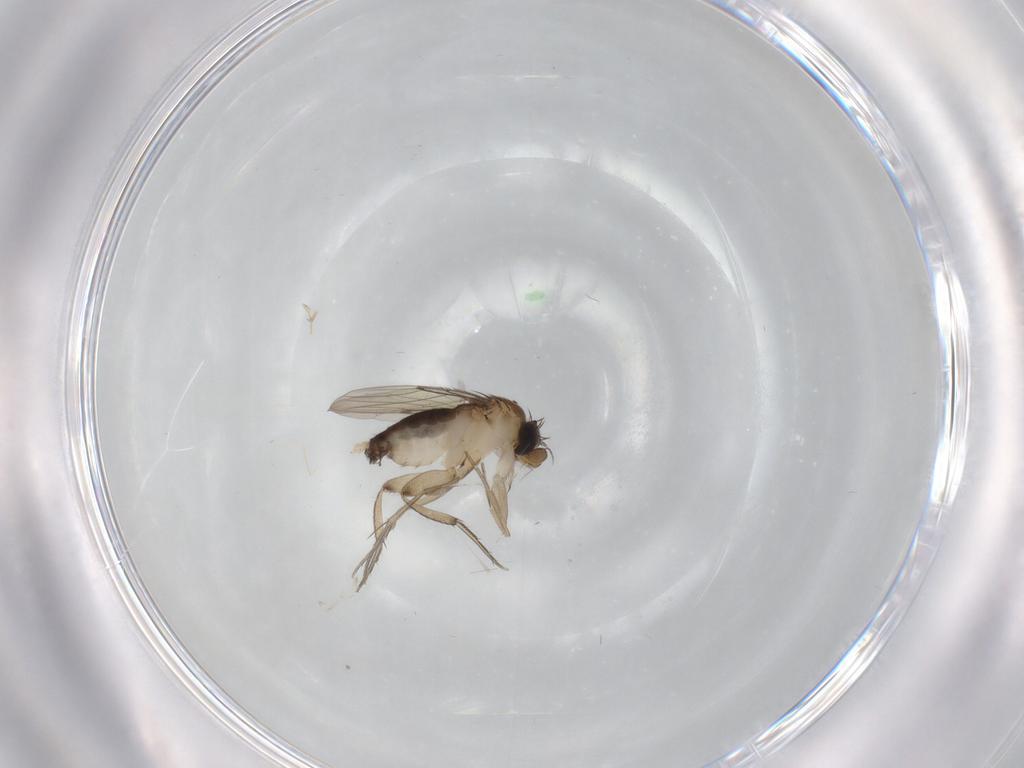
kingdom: Animalia
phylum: Arthropoda
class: Insecta
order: Diptera
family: Phoridae
